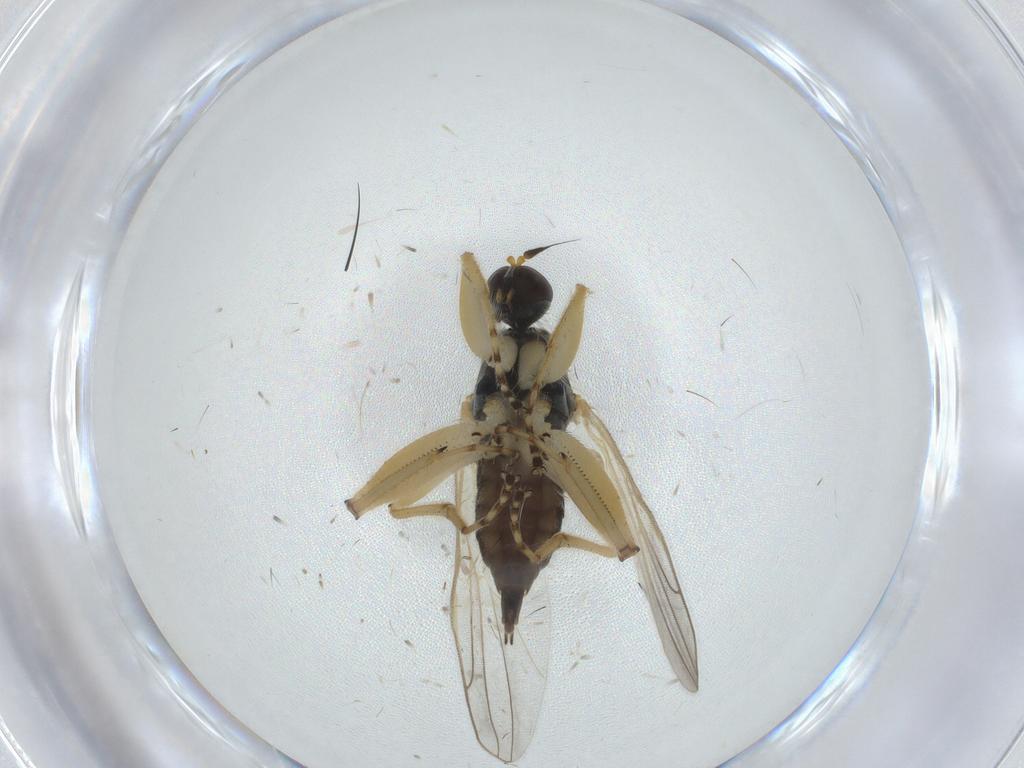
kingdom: Animalia
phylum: Arthropoda
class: Insecta
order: Diptera
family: Hybotidae
